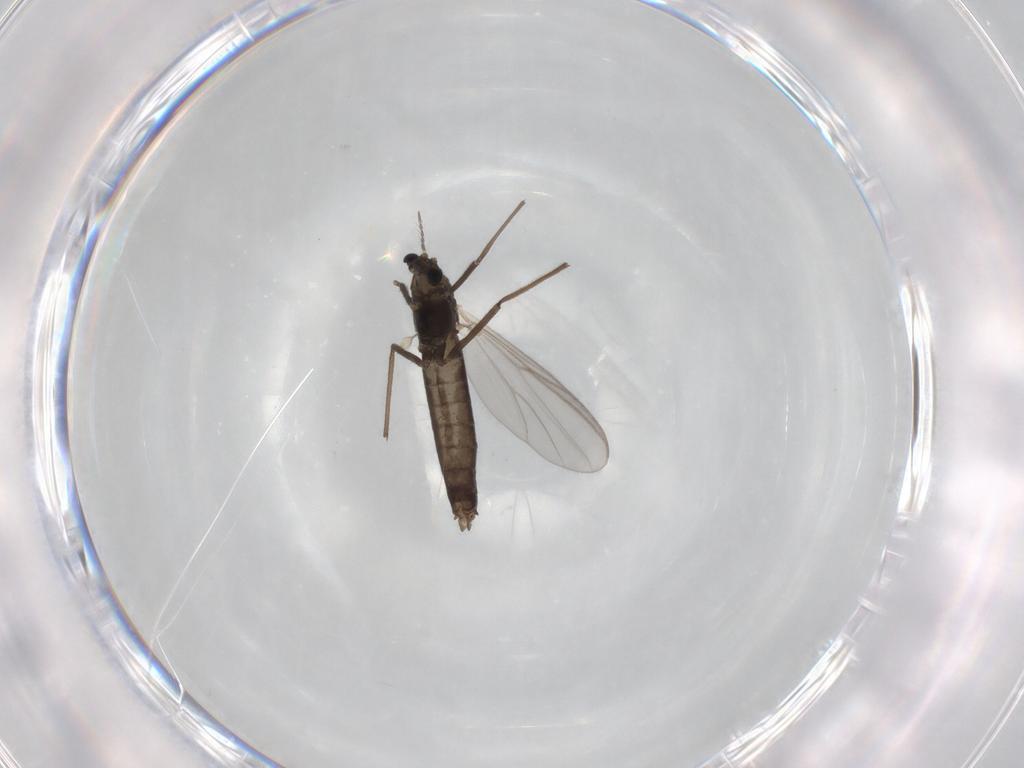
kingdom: Animalia
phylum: Arthropoda
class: Insecta
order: Diptera
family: Chironomidae
